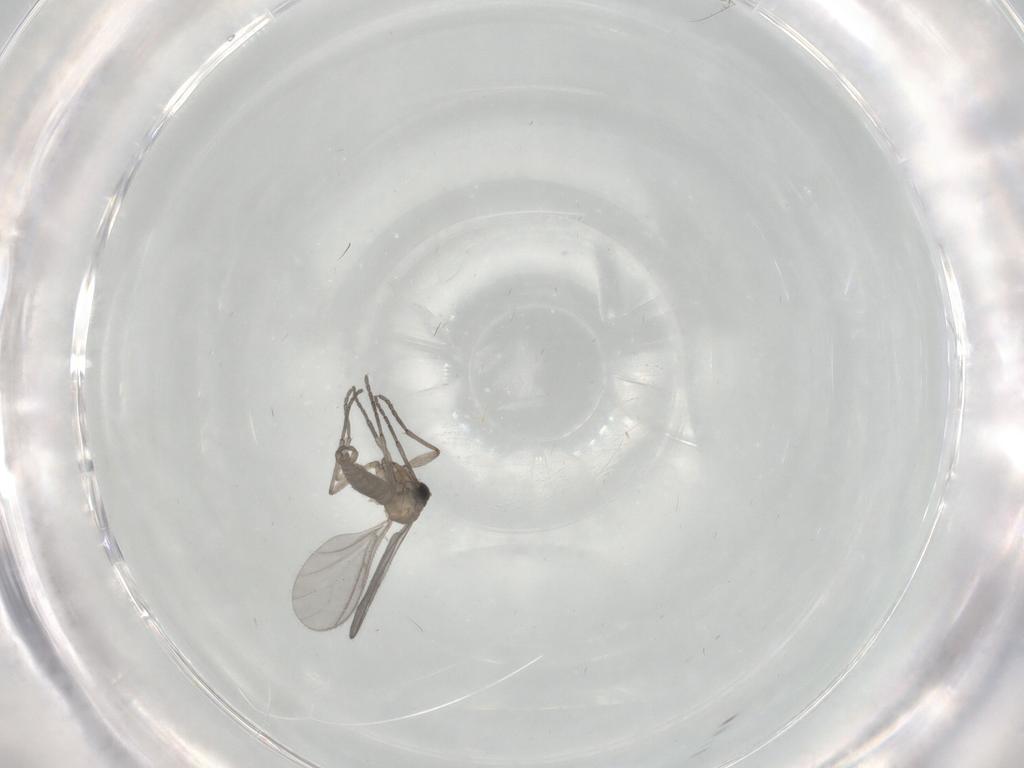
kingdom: Animalia
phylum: Arthropoda
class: Insecta
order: Diptera
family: Sciaridae
